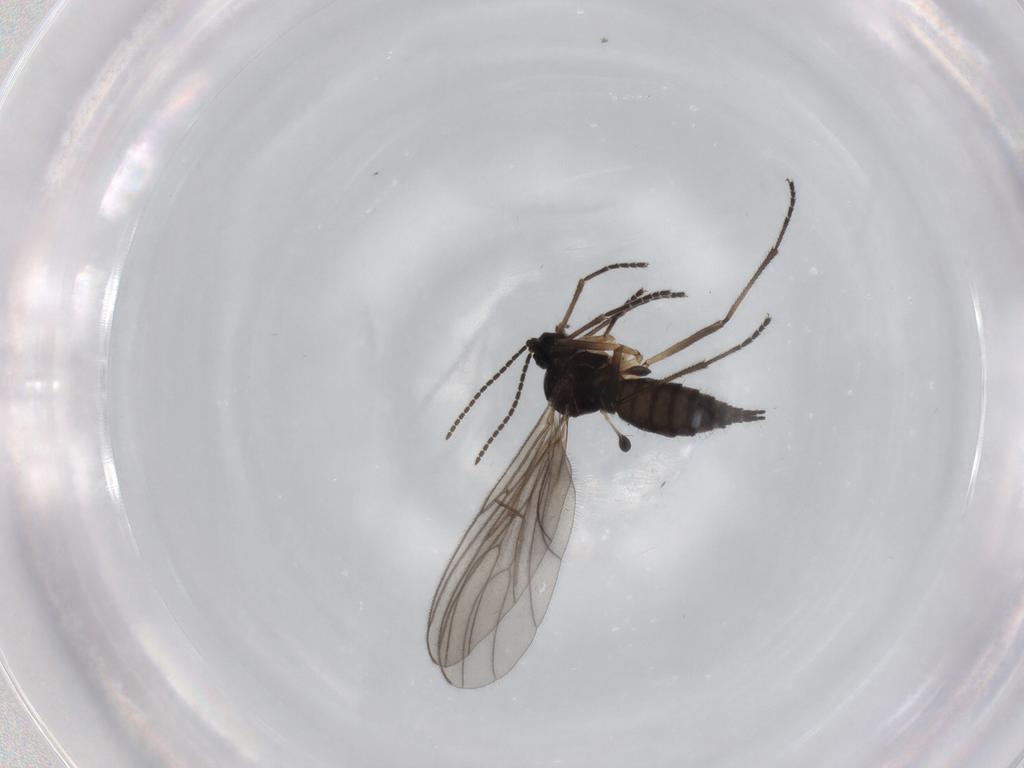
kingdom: Animalia
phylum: Arthropoda
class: Insecta
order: Diptera
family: Sciaridae
